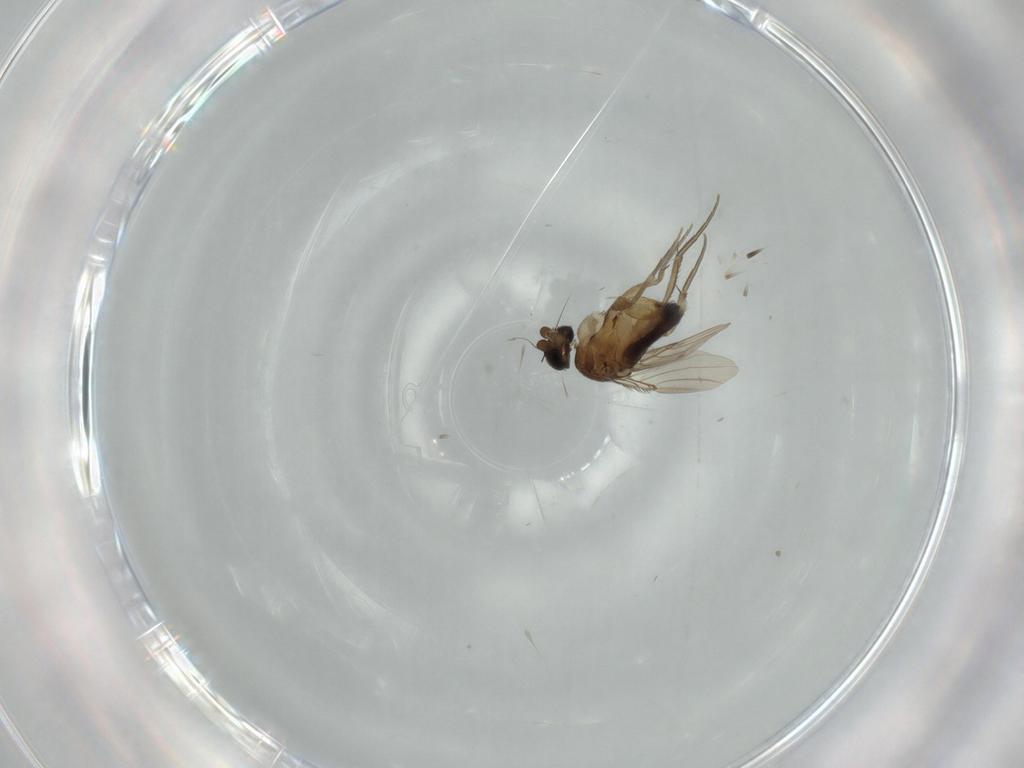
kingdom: Animalia
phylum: Arthropoda
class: Insecta
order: Diptera
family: Phoridae
